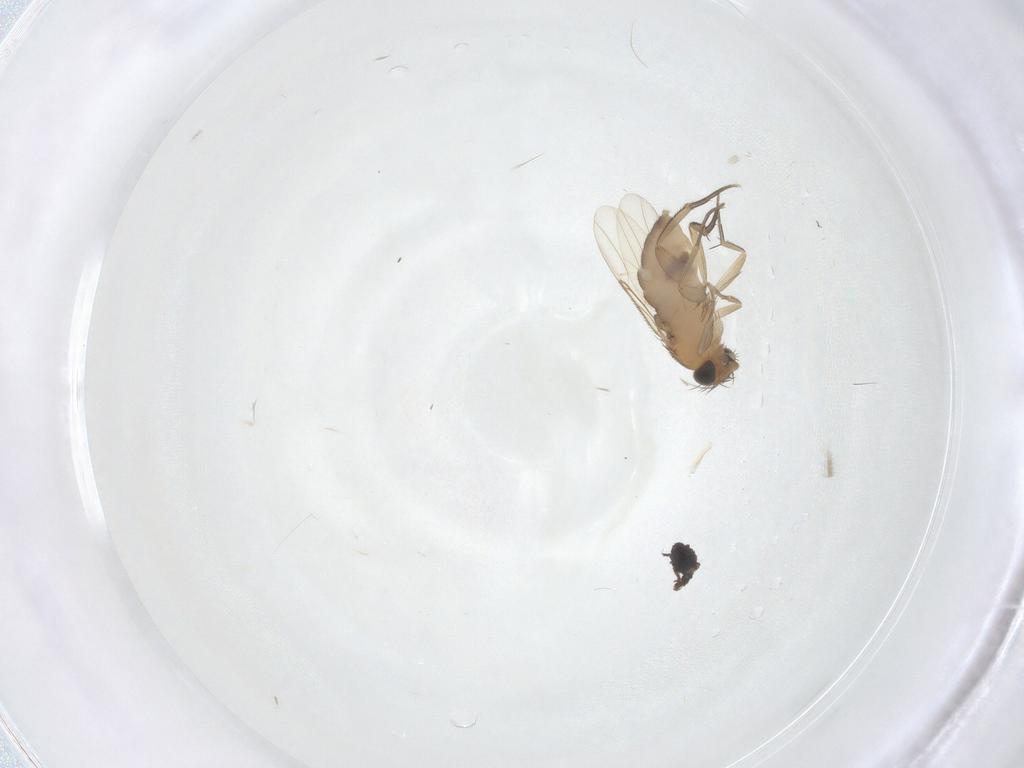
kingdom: Animalia
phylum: Arthropoda
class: Insecta
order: Diptera
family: Phoridae
